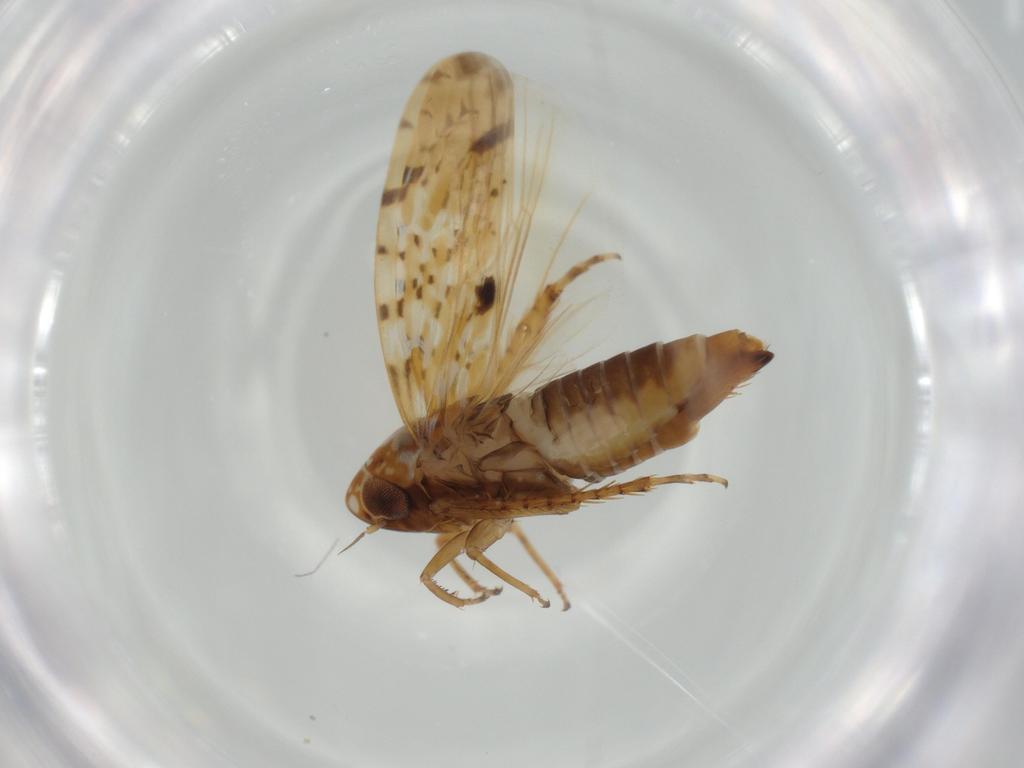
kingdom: Animalia
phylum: Arthropoda
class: Insecta
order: Hemiptera
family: Cicadellidae
